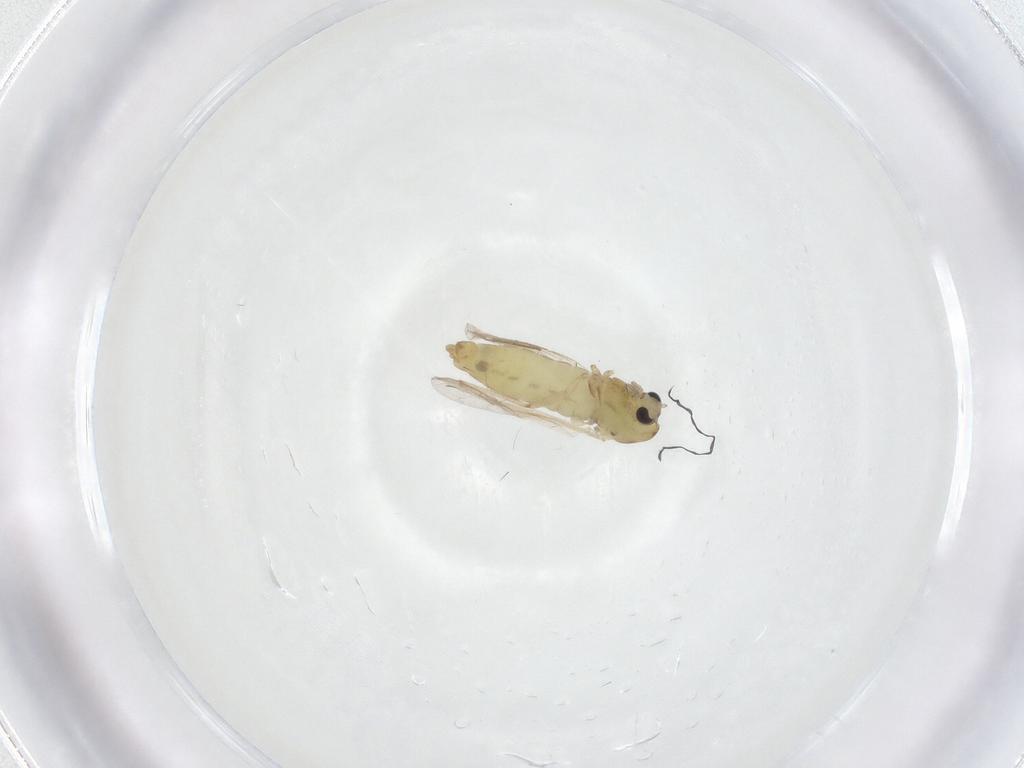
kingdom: Animalia
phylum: Arthropoda
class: Insecta
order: Diptera
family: Chironomidae
